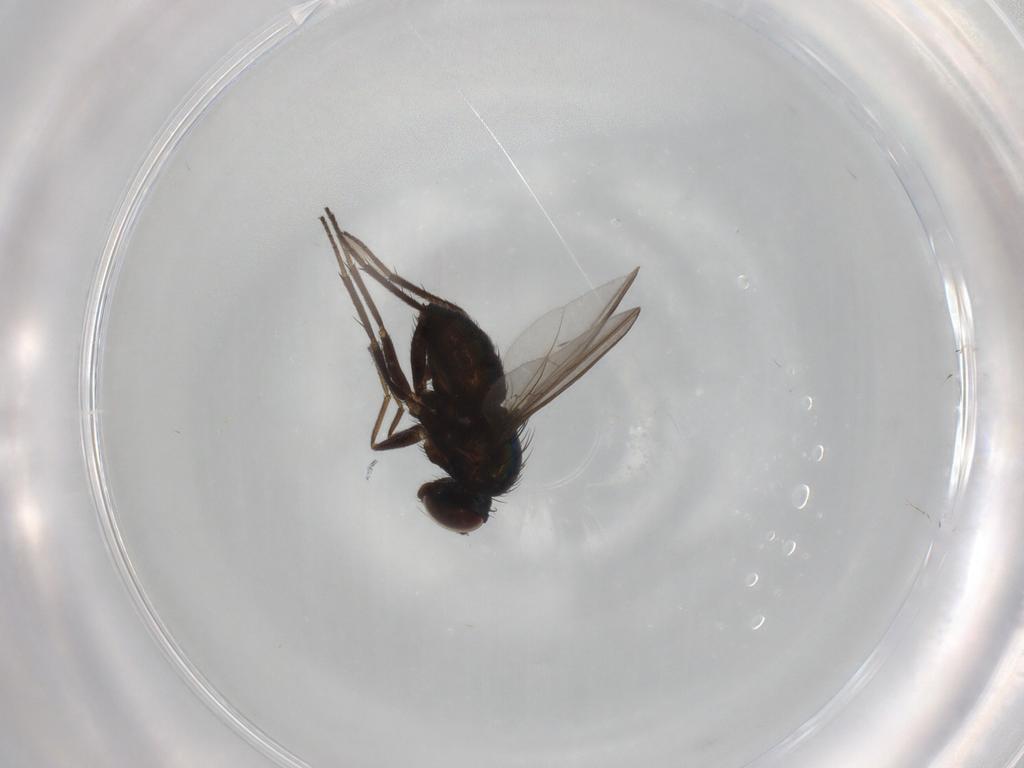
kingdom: Animalia
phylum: Arthropoda
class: Insecta
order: Diptera
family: Dolichopodidae
